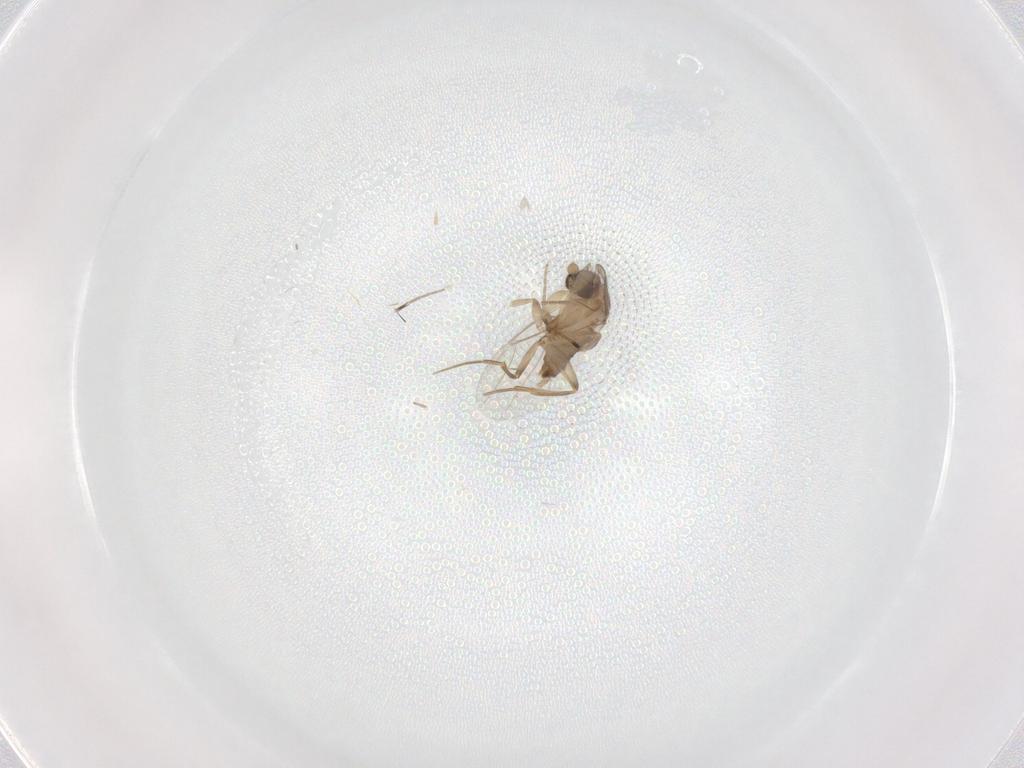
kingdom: Animalia
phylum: Arthropoda
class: Insecta
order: Diptera
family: Phoridae
